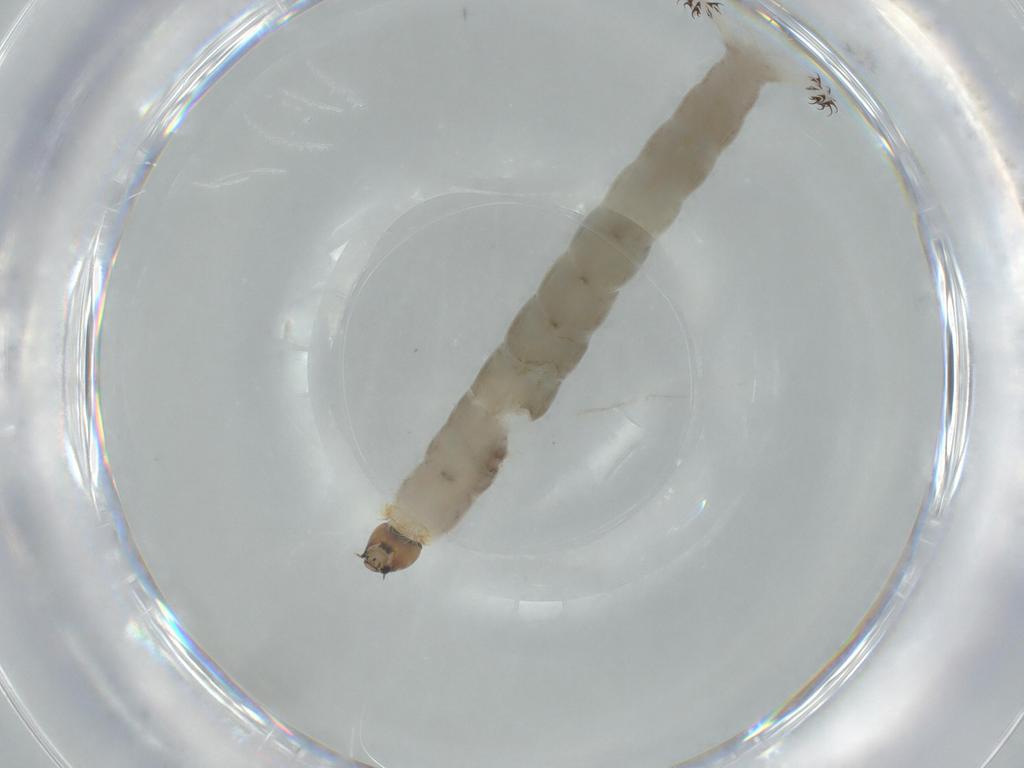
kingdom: Animalia
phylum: Arthropoda
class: Insecta
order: Diptera
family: Chironomidae
